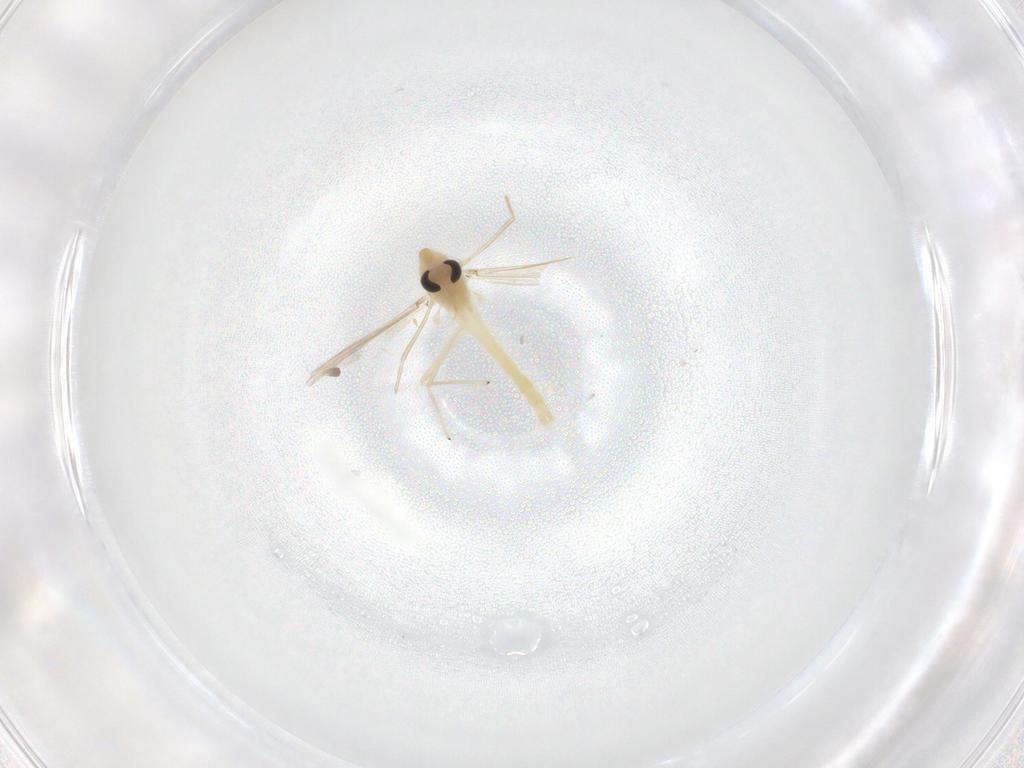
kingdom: Animalia
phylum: Arthropoda
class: Insecta
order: Diptera
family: Chironomidae
